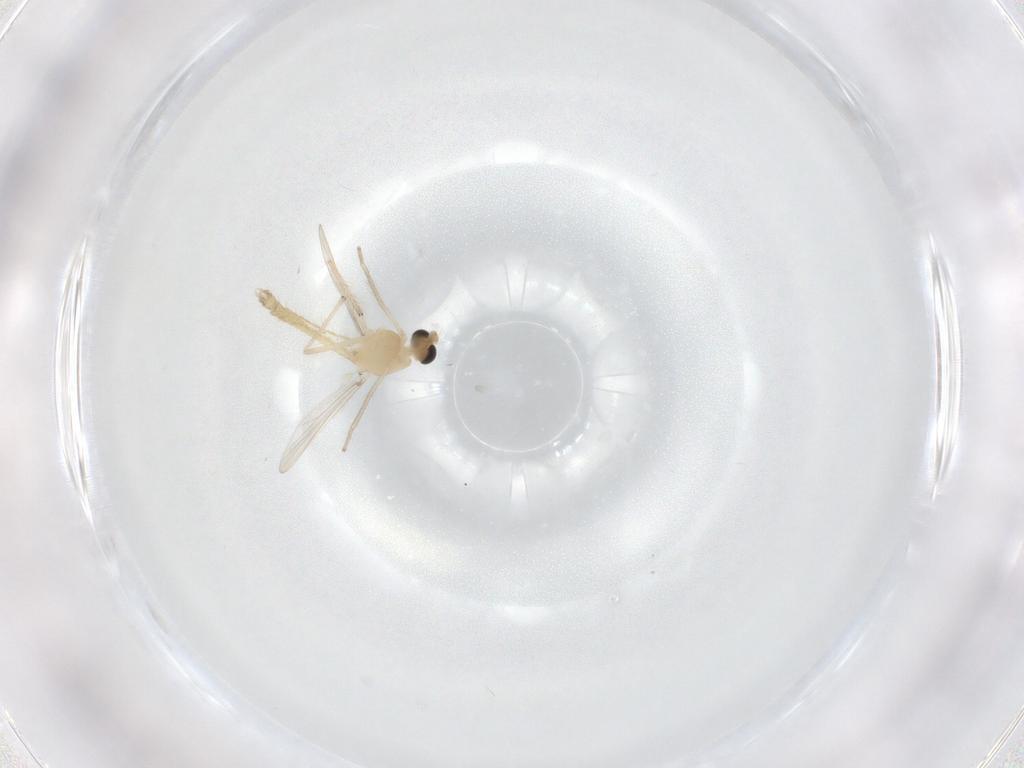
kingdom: Animalia
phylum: Arthropoda
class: Insecta
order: Diptera
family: Chironomidae
